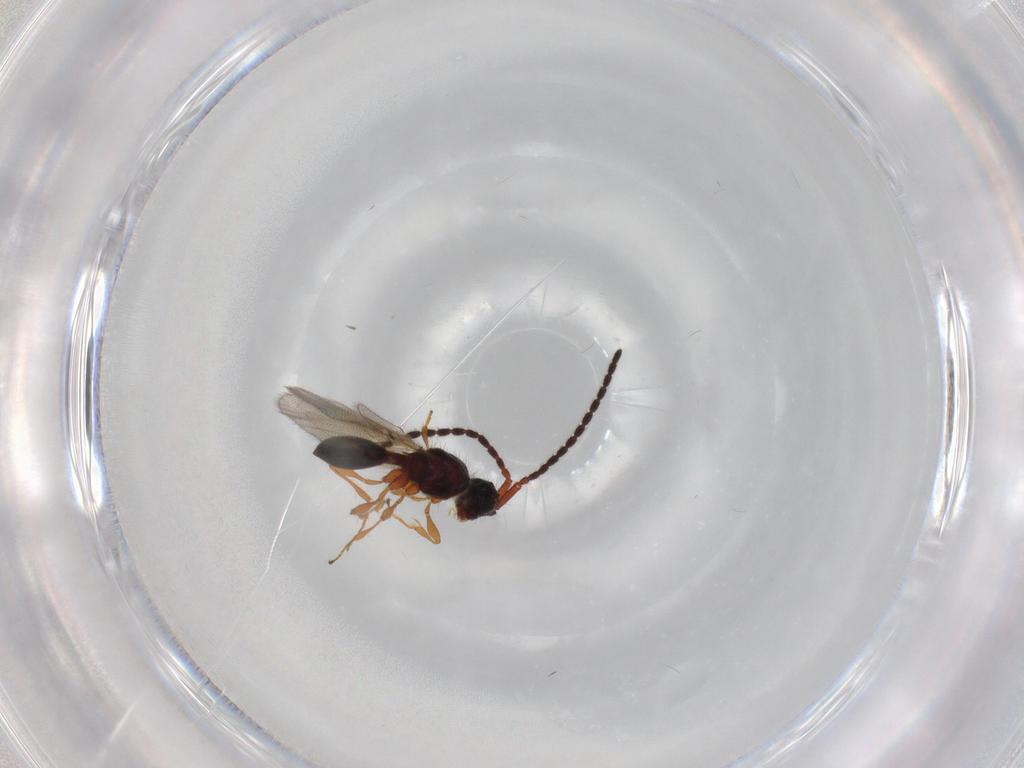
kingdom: Animalia
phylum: Arthropoda
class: Insecta
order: Hymenoptera
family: Diapriidae
